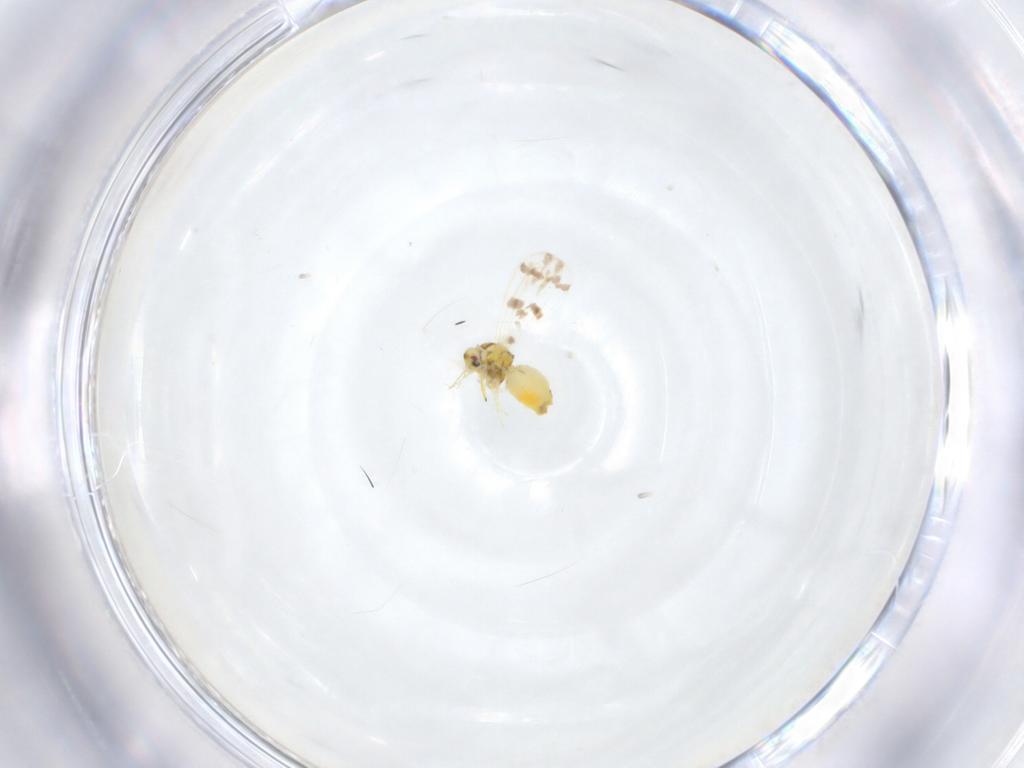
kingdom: Animalia
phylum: Arthropoda
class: Insecta
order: Hemiptera
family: Aleyrodidae
